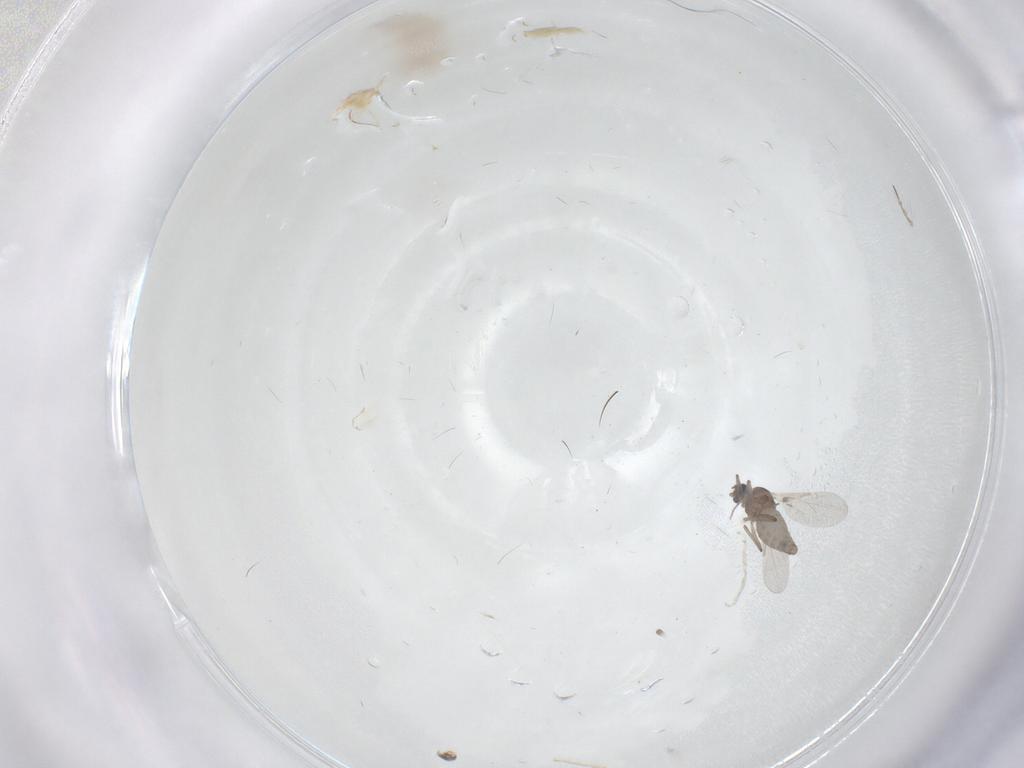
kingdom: Animalia
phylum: Arthropoda
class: Insecta
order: Diptera
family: Chironomidae
